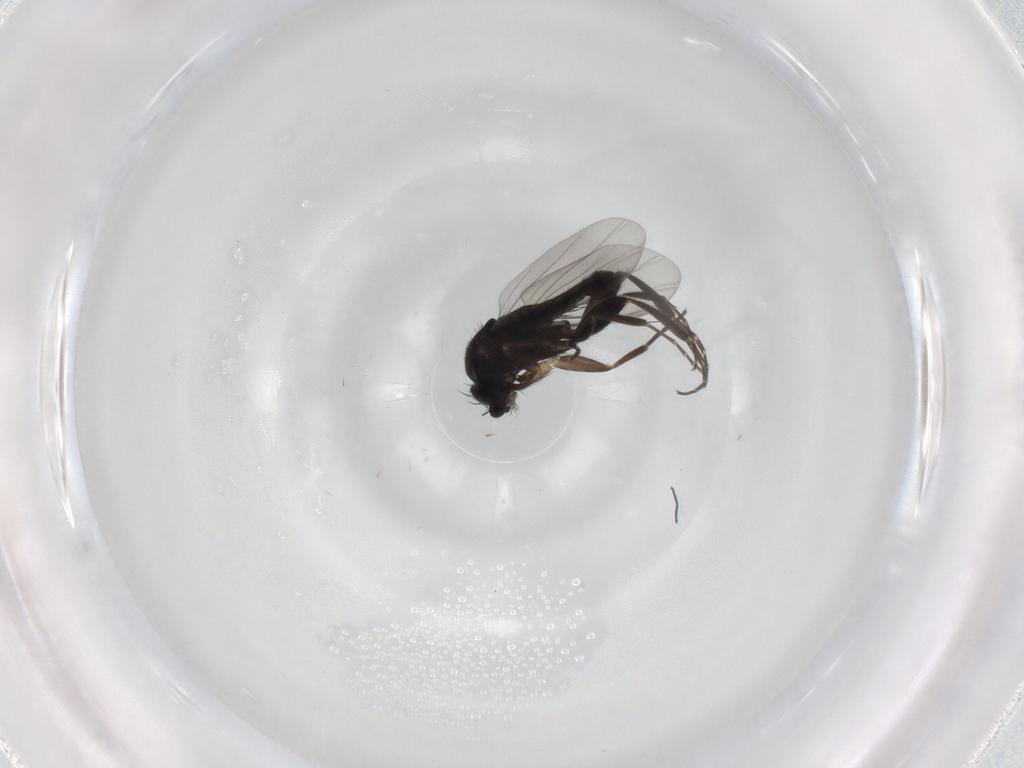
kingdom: Animalia
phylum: Arthropoda
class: Insecta
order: Diptera
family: Phoridae
